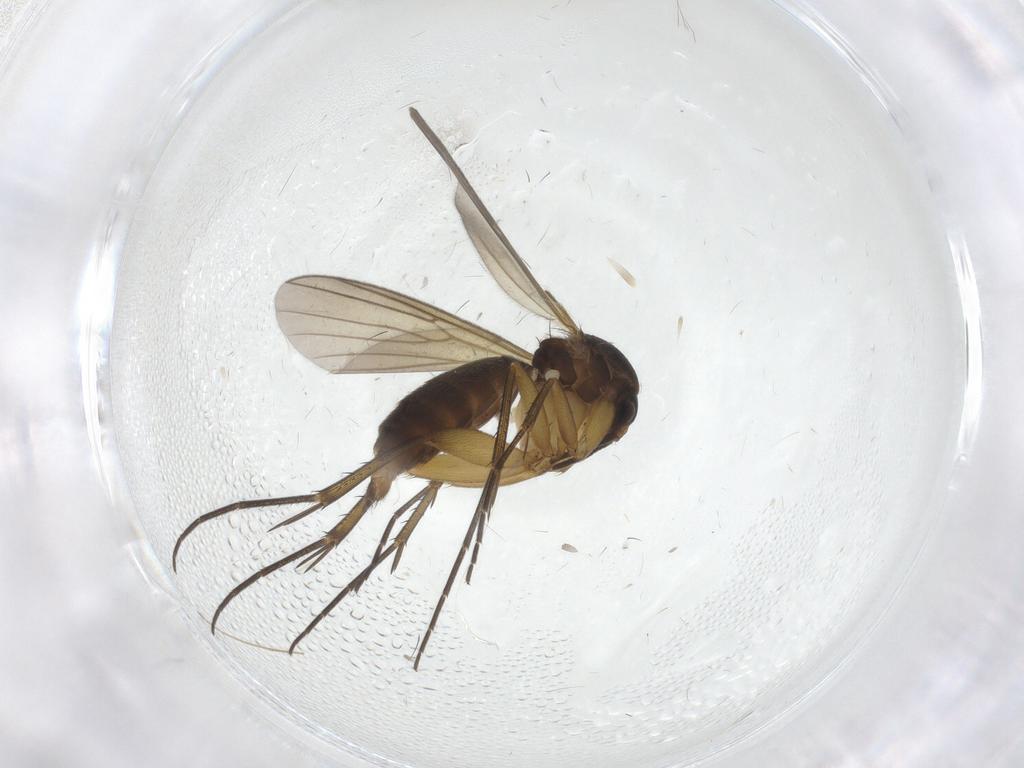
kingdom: Animalia
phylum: Arthropoda
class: Insecta
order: Diptera
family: Mycetophilidae
